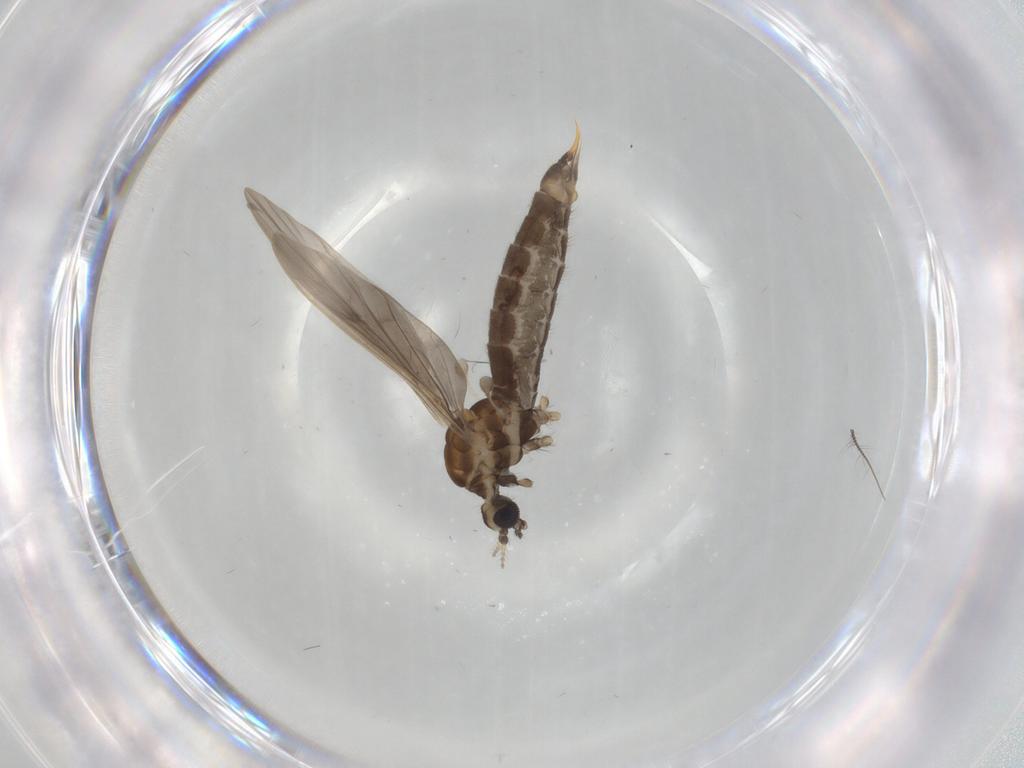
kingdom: Animalia
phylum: Arthropoda
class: Insecta
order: Diptera
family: Limoniidae
